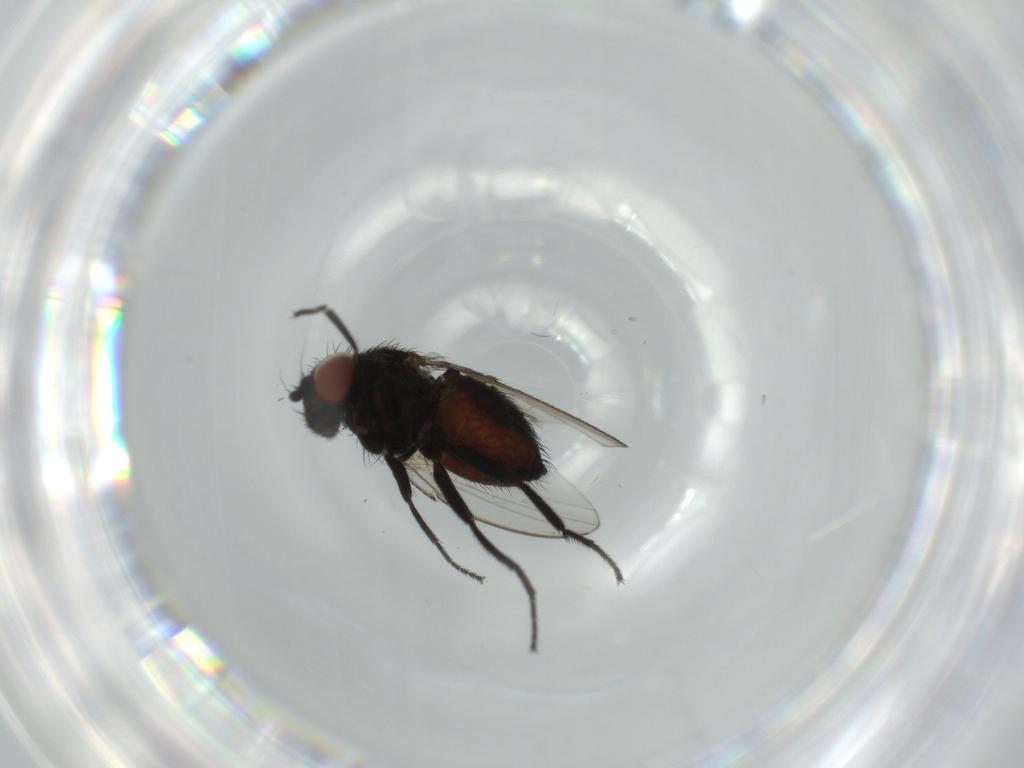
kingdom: Animalia
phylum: Arthropoda
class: Insecta
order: Diptera
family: Milichiidae
